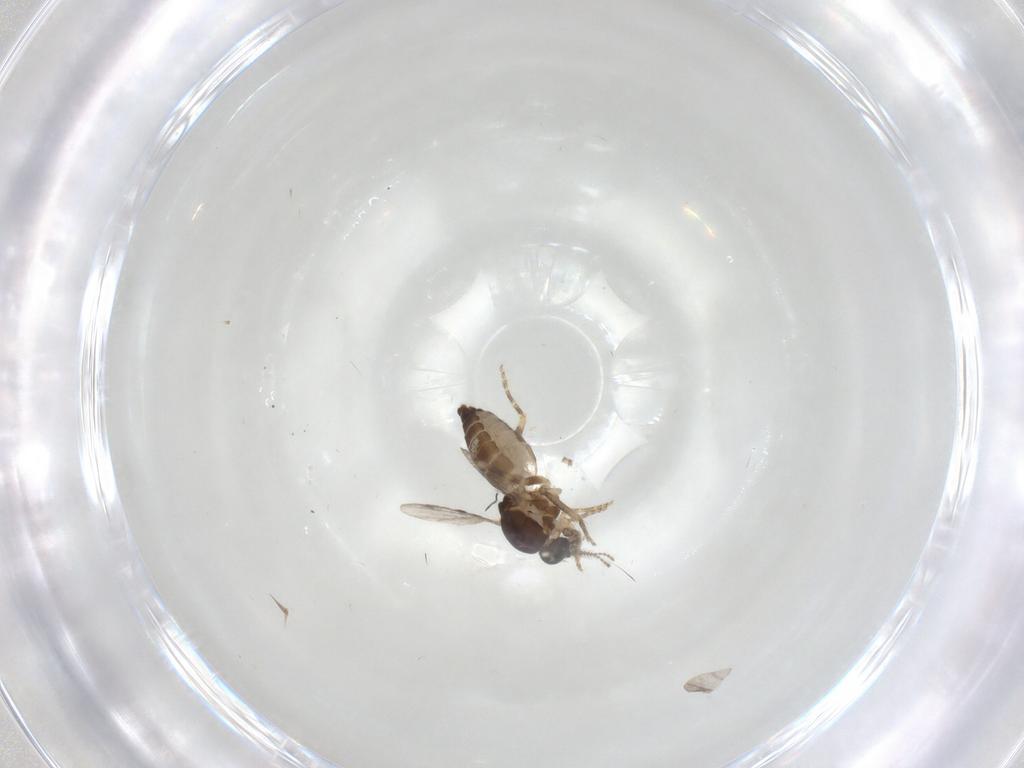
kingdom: Animalia
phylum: Arthropoda
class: Insecta
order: Diptera
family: Ceratopogonidae
